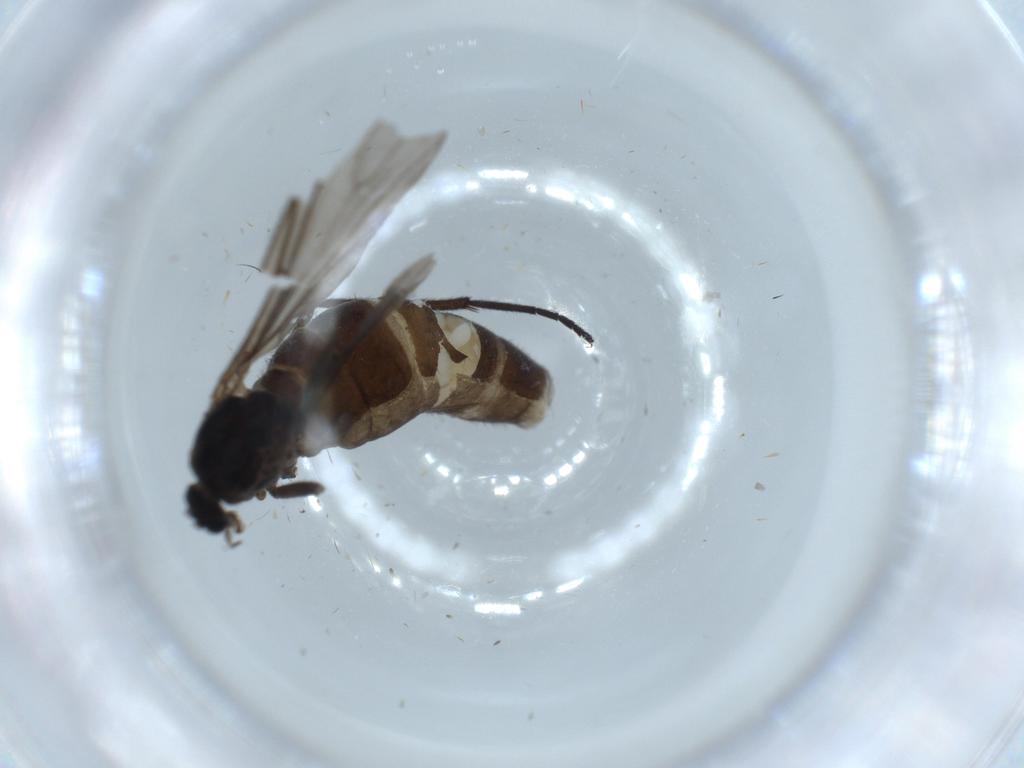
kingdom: Animalia
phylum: Arthropoda
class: Insecta
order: Diptera
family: Sciaridae
